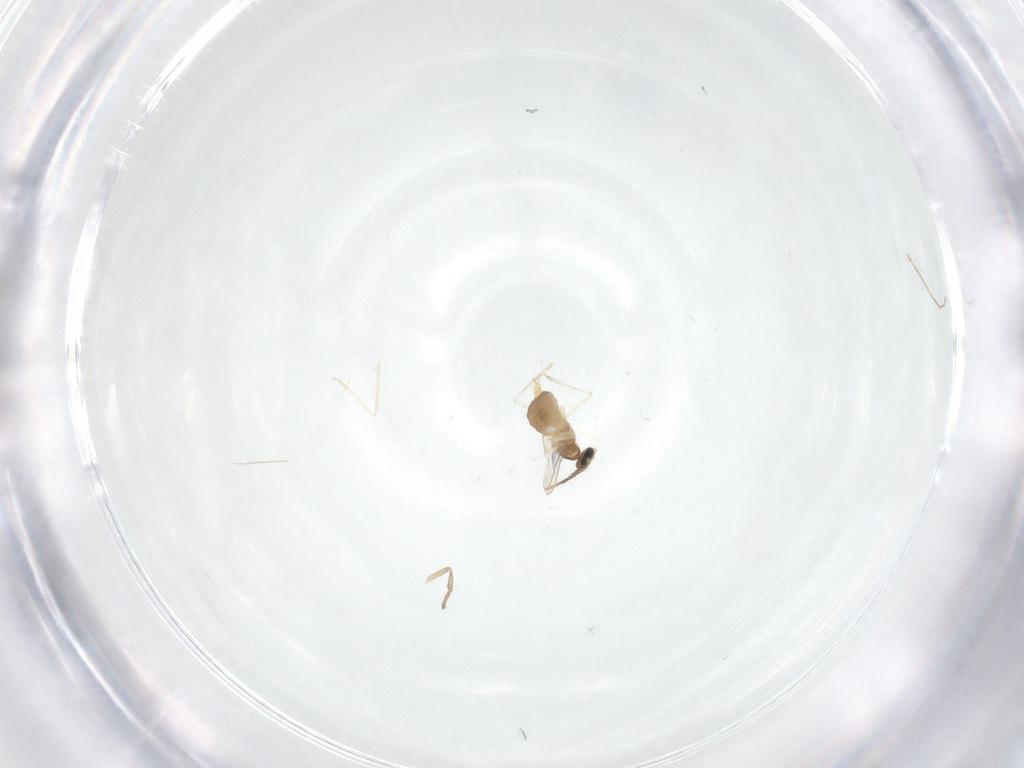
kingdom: Animalia
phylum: Arthropoda
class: Insecta
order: Diptera
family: Cecidomyiidae
